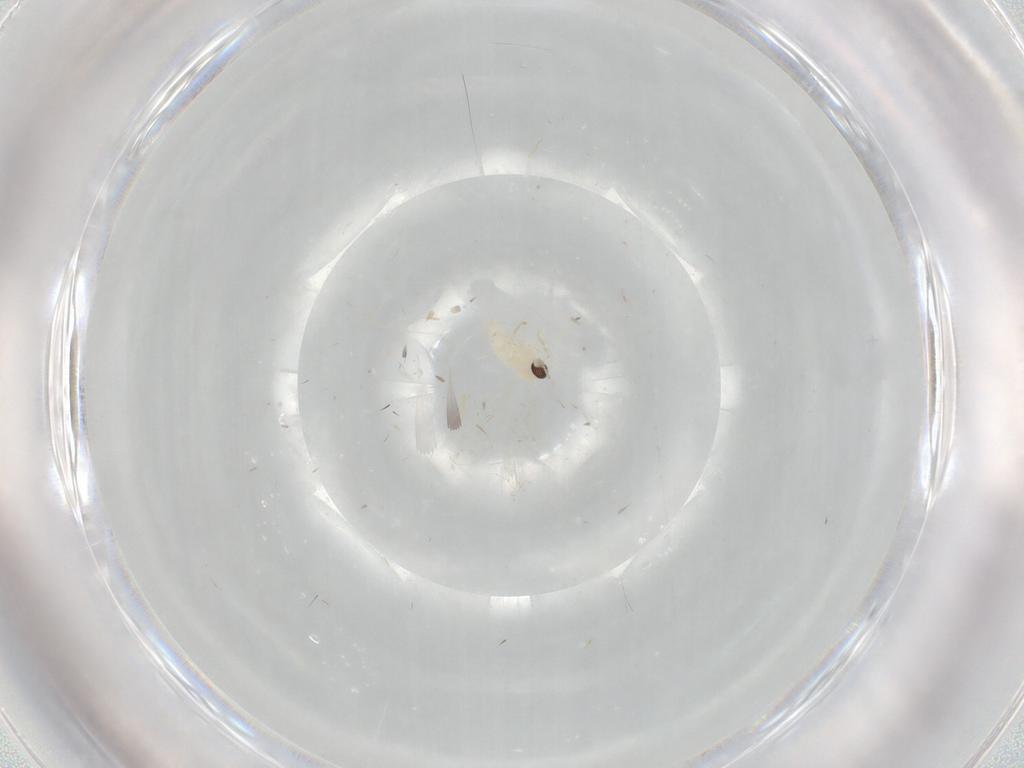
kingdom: Animalia
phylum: Arthropoda
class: Insecta
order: Diptera
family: Cecidomyiidae
